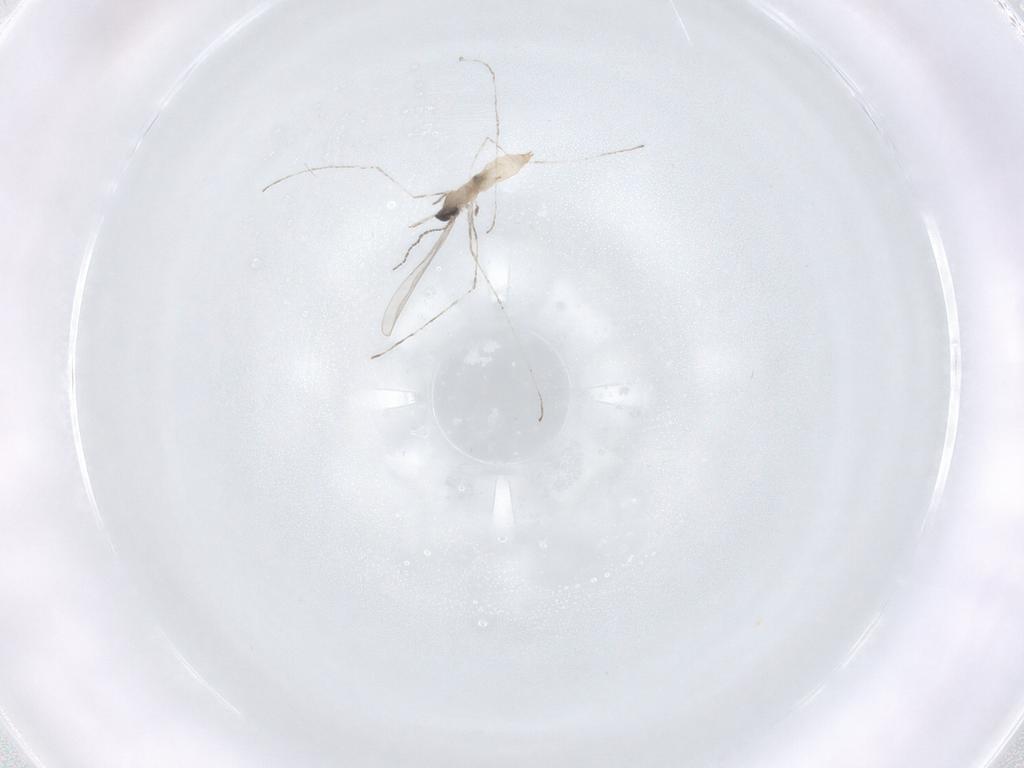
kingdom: Animalia
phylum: Arthropoda
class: Insecta
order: Diptera
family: Cecidomyiidae
